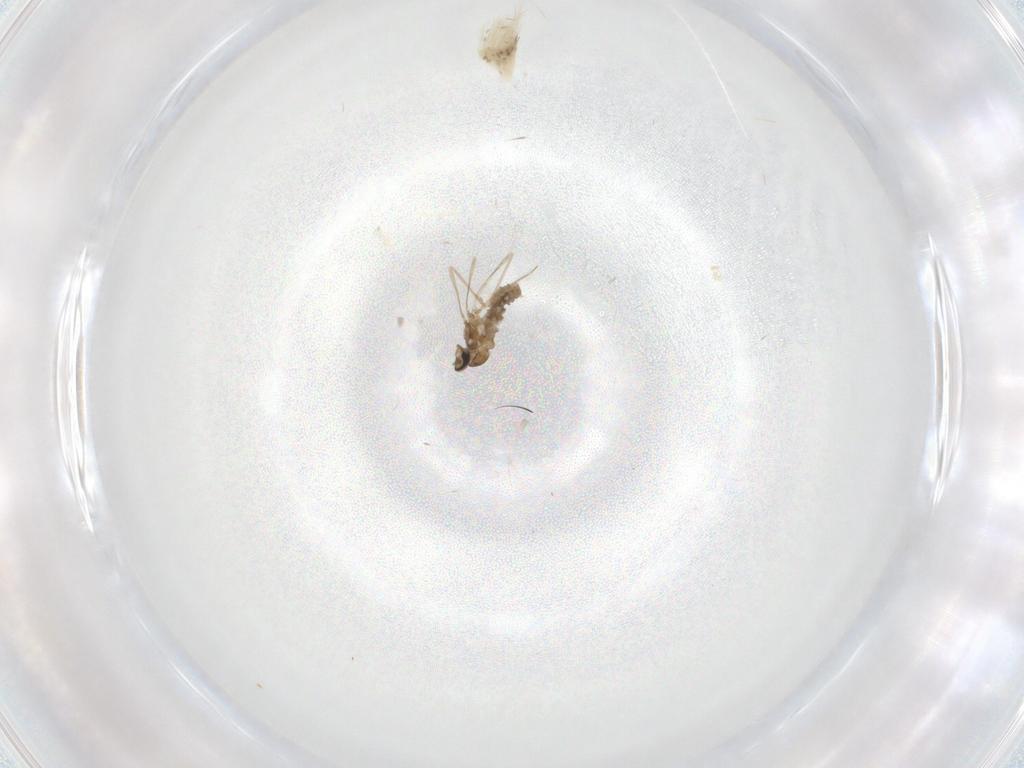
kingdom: Animalia
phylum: Arthropoda
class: Insecta
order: Diptera
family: Cecidomyiidae
